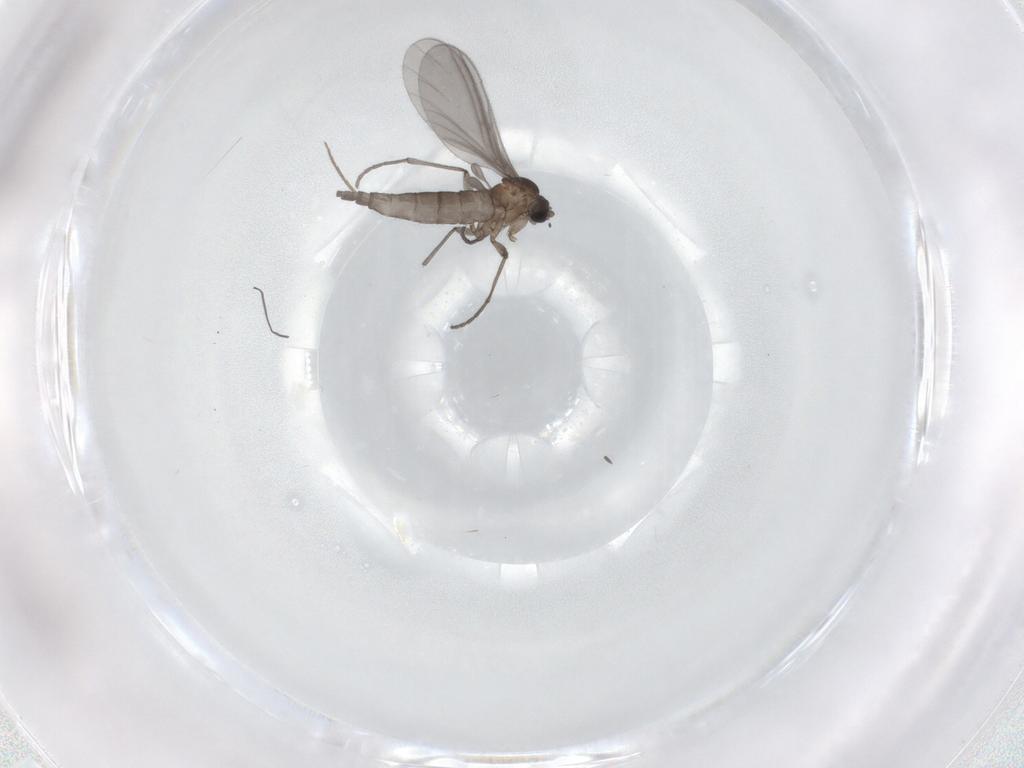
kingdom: Animalia
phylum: Arthropoda
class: Insecta
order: Diptera
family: Sciaridae
